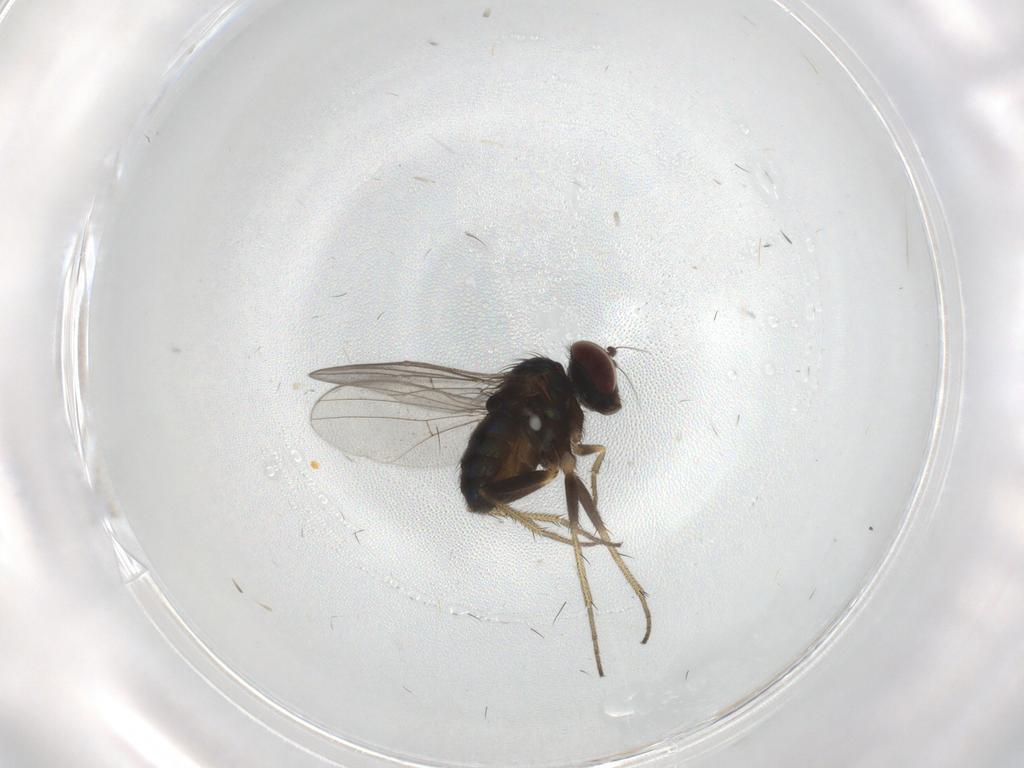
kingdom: Animalia
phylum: Arthropoda
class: Insecta
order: Diptera
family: Dolichopodidae
